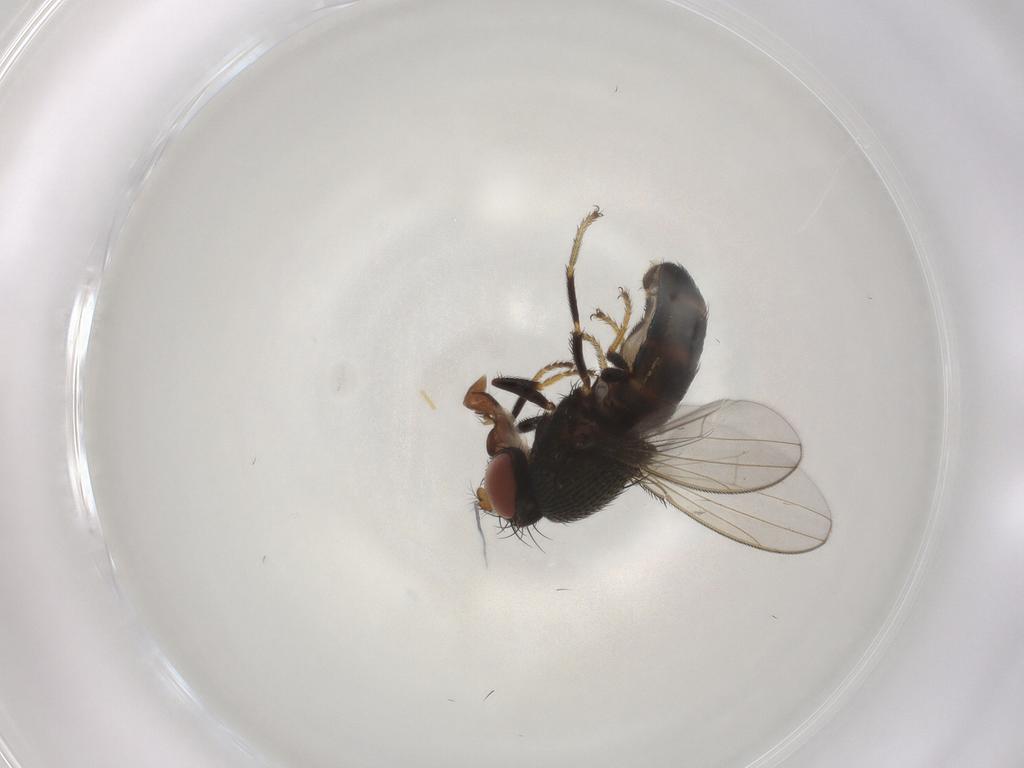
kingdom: Animalia
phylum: Arthropoda
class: Insecta
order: Diptera
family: Ephydridae
